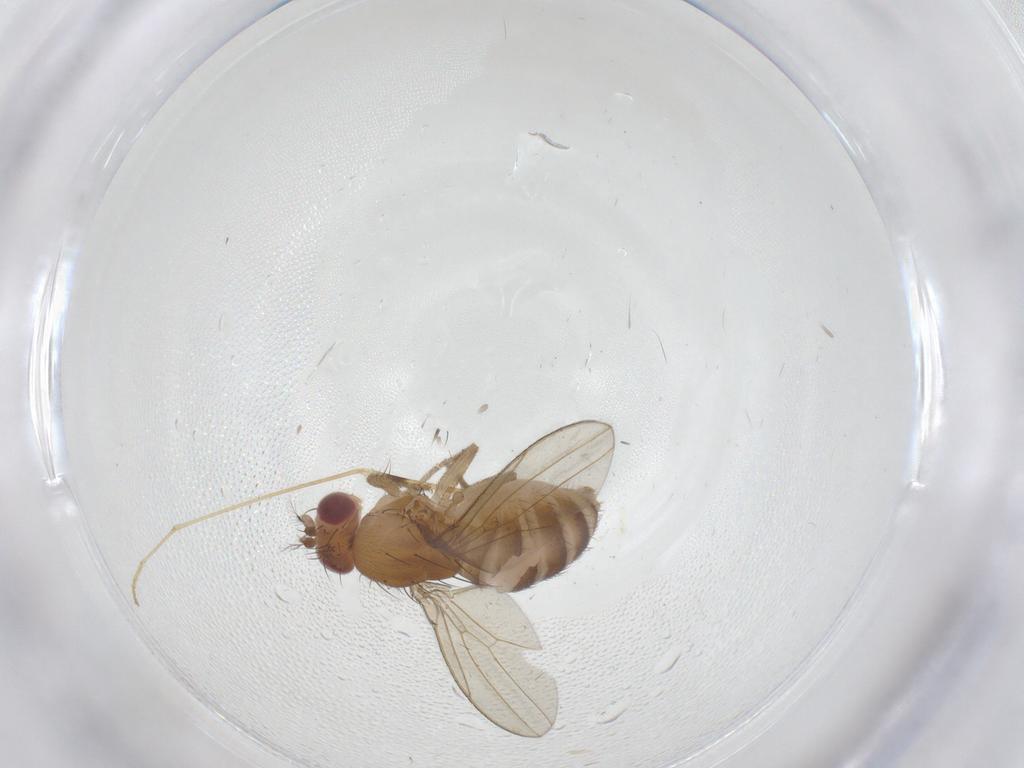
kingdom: Animalia
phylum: Arthropoda
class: Insecta
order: Diptera
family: Drosophilidae
